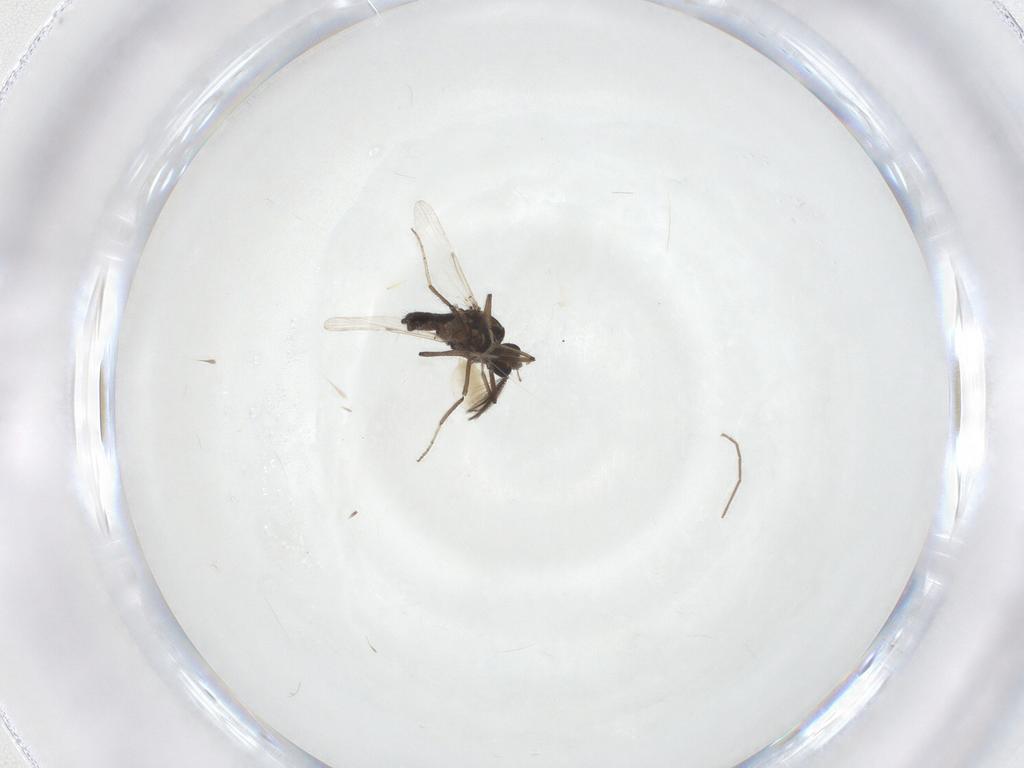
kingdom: Animalia
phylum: Arthropoda
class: Insecta
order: Diptera
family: Ceratopogonidae
